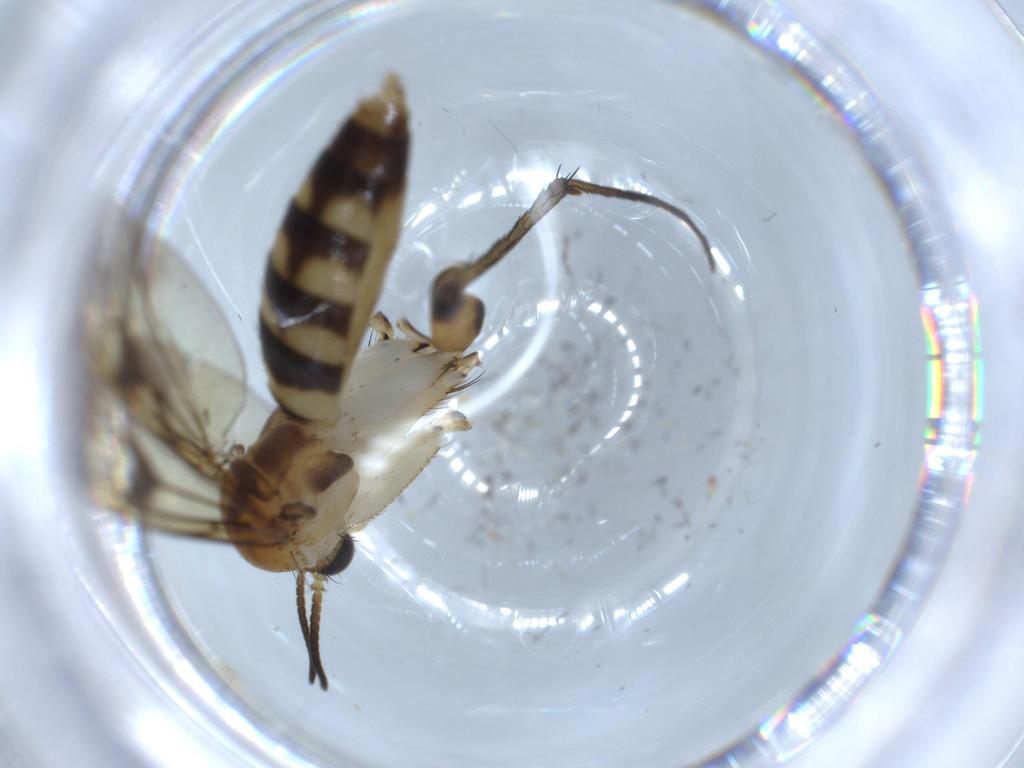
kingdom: Animalia
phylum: Arthropoda
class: Insecta
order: Diptera
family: Mycetophilidae
